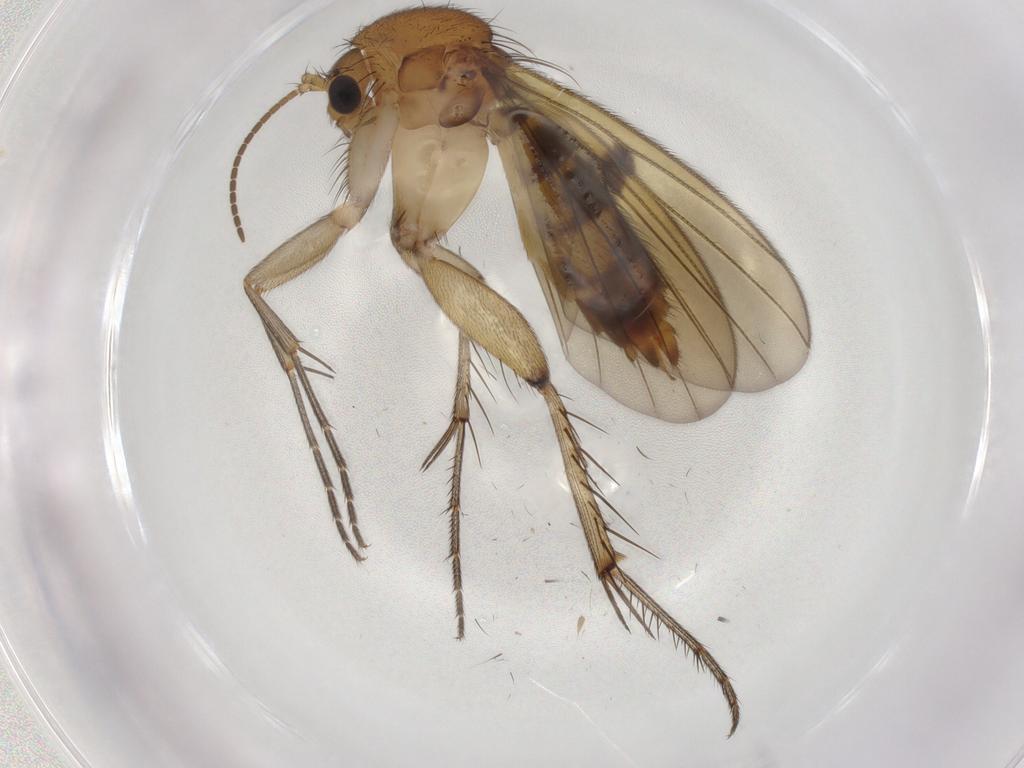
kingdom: Animalia
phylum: Arthropoda
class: Insecta
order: Diptera
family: Mycetophilidae
